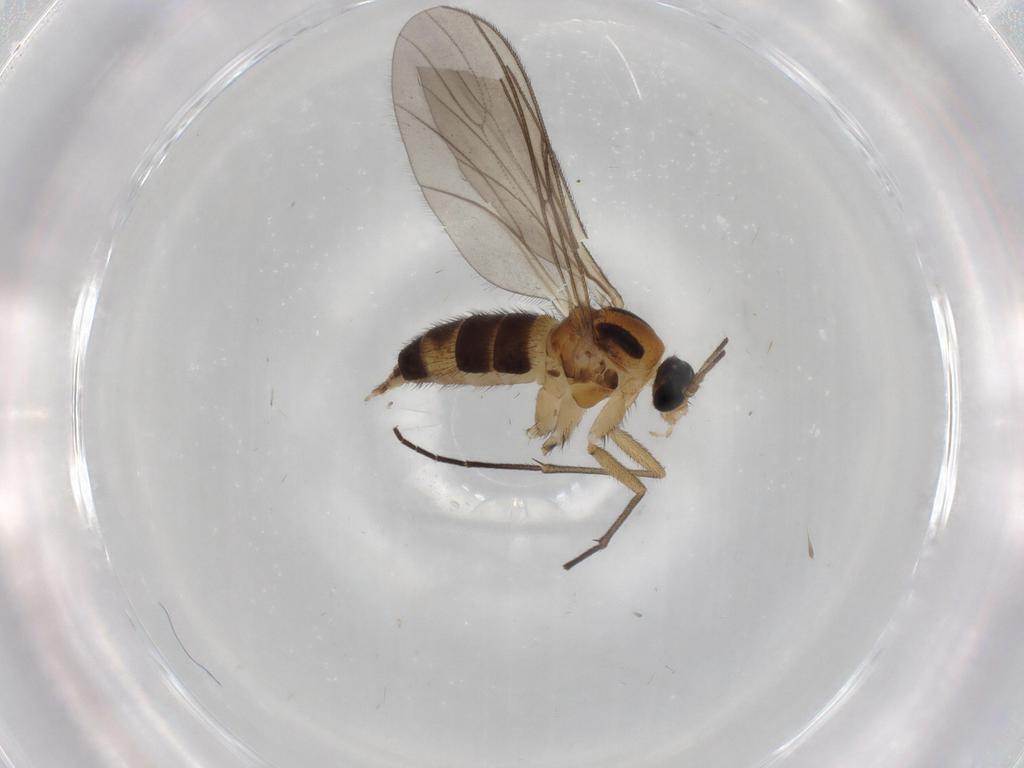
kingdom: Animalia
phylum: Arthropoda
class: Insecta
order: Diptera
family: Sciaridae
